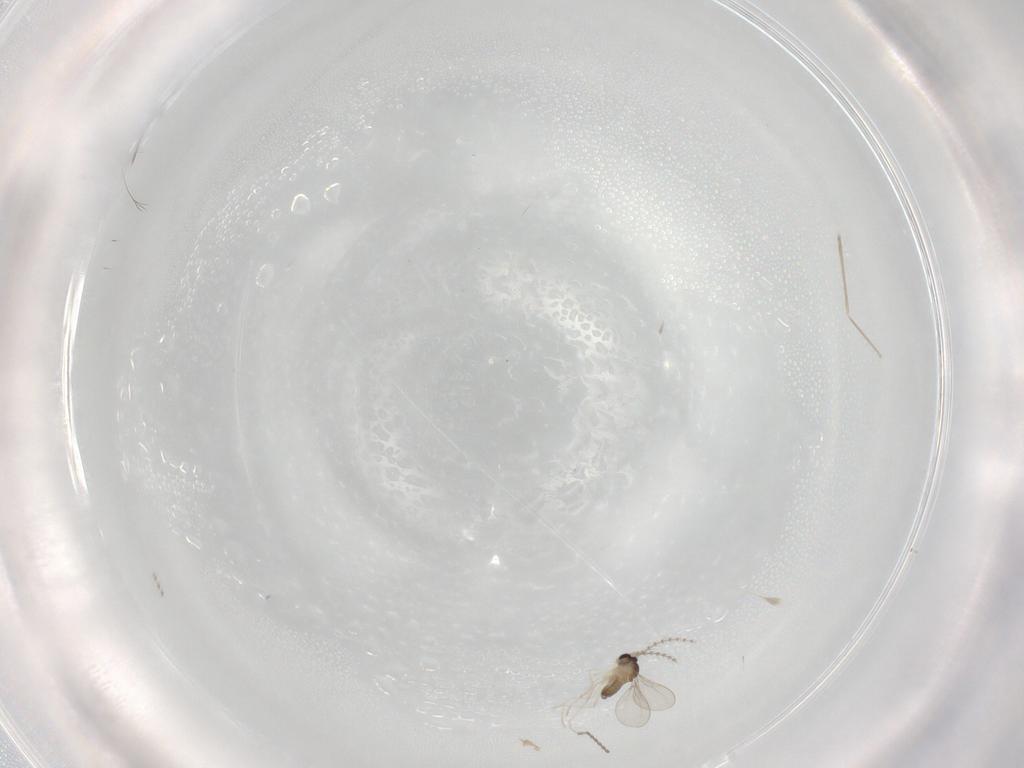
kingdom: Animalia
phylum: Arthropoda
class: Insecta
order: Diptera
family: Cecidomyiidae
